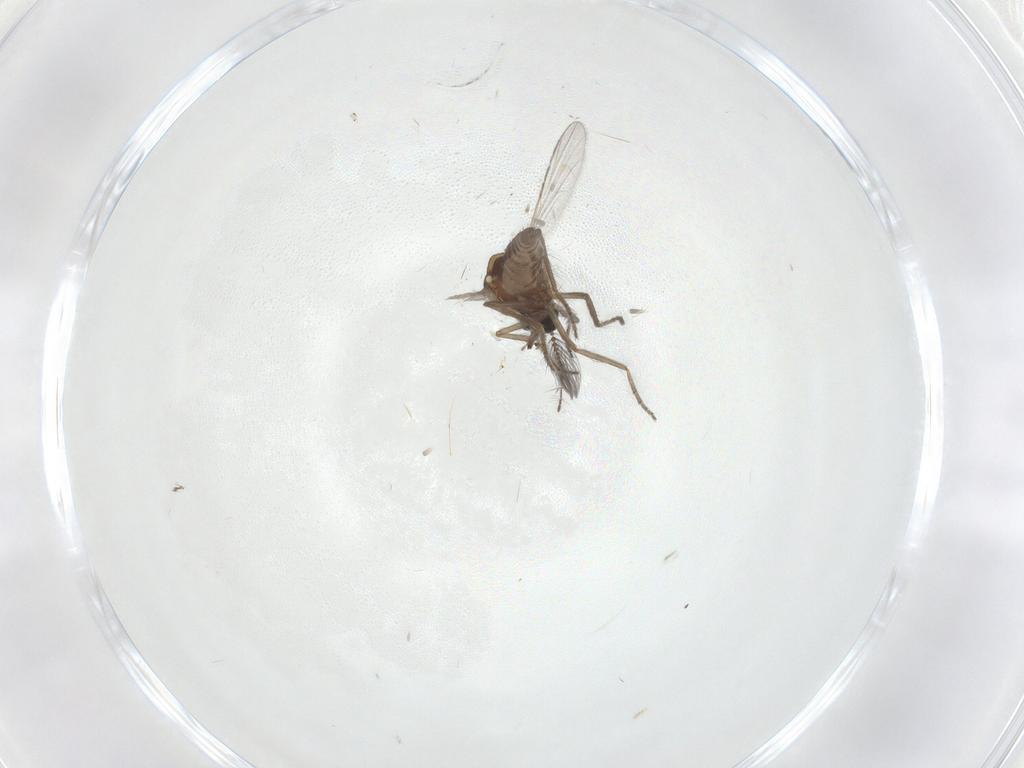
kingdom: Animalia
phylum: Arthropoda
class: Insecta
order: Diptera
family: Ceratopogonidae
